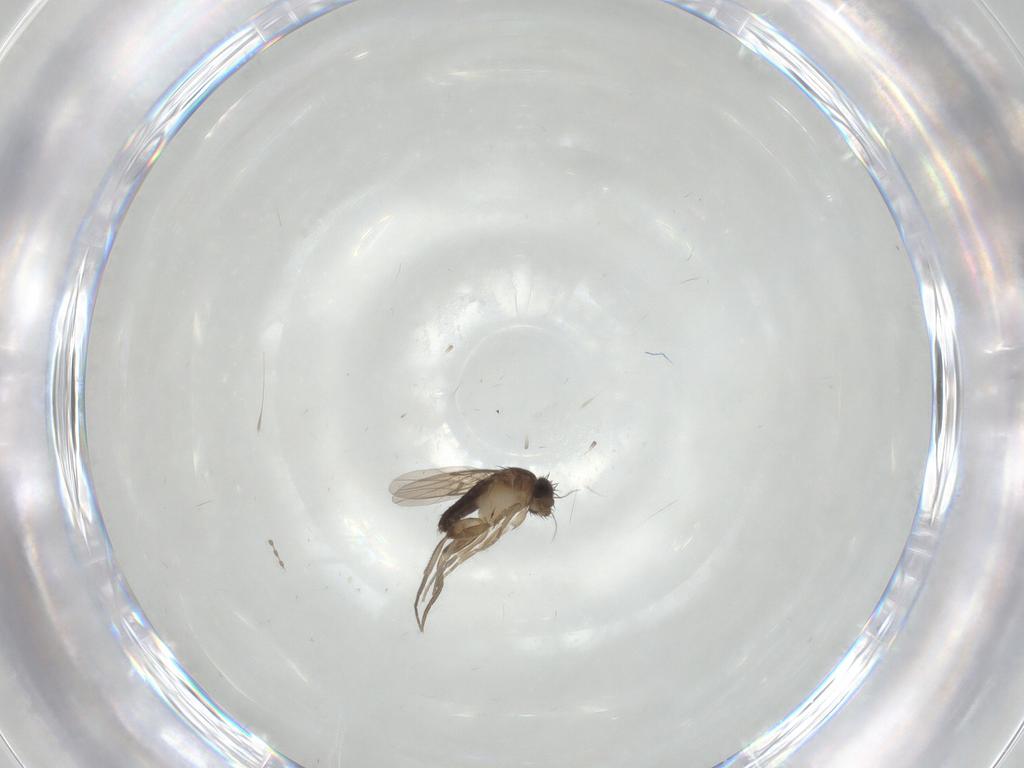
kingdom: Animalia
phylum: Arthropoda
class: Insecta
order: Diptera
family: Phoridae
